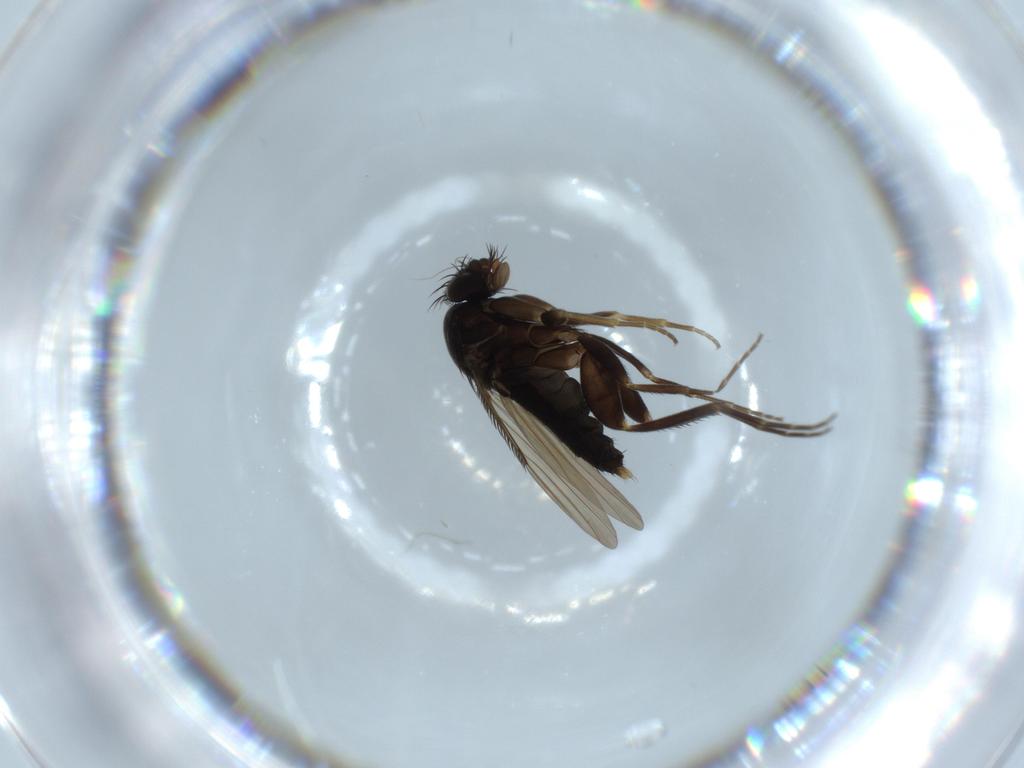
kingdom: Animalia
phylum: Arthropoda
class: Insecta
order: Diptera
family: Phoridae
